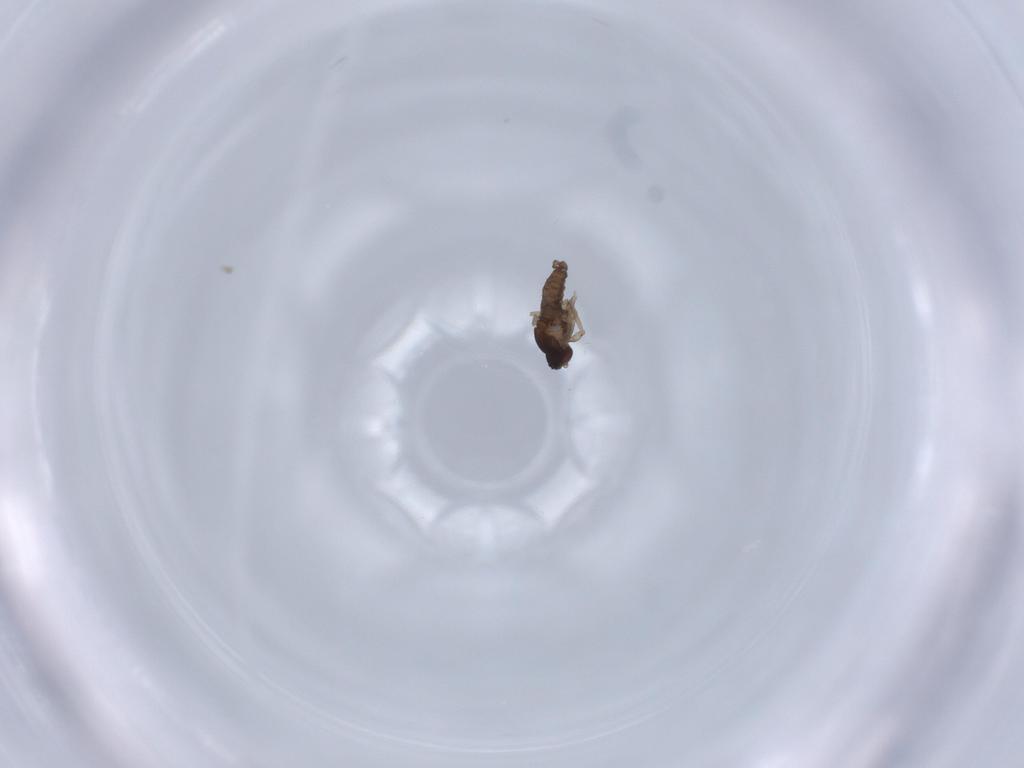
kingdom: Animalia
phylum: Arthropoda
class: Insecta
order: Diptera
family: Cecidomyiidae
